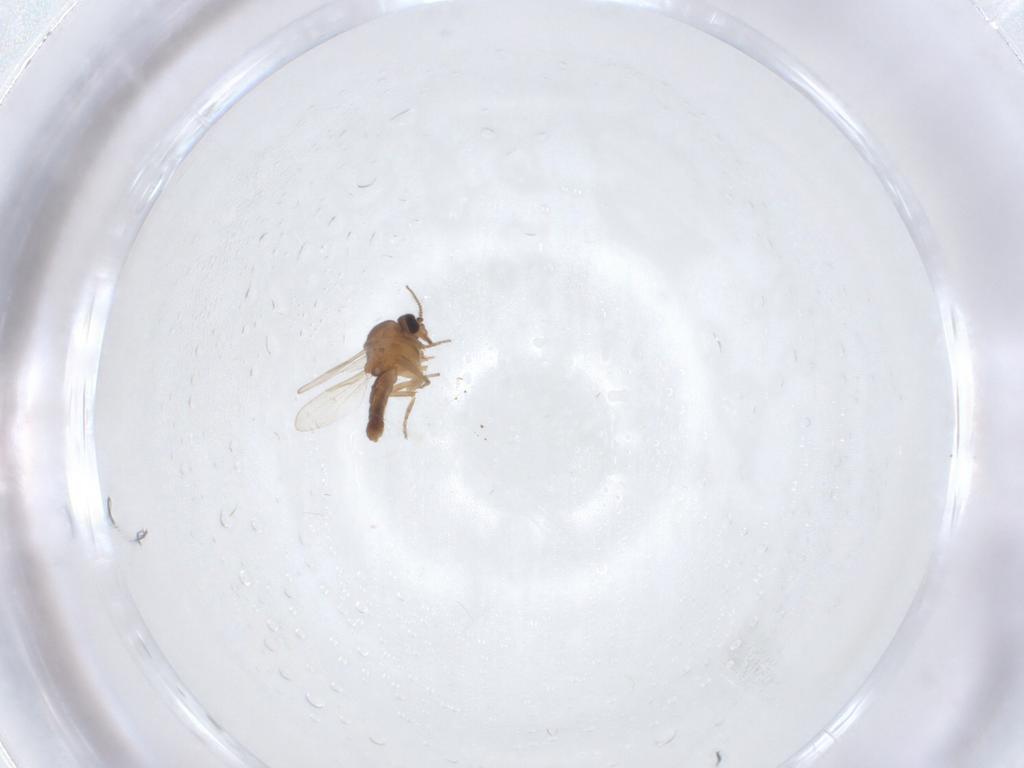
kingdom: Animalia
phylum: Arthropoda
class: Insecta
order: Diptera
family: Ceratopogonidae
